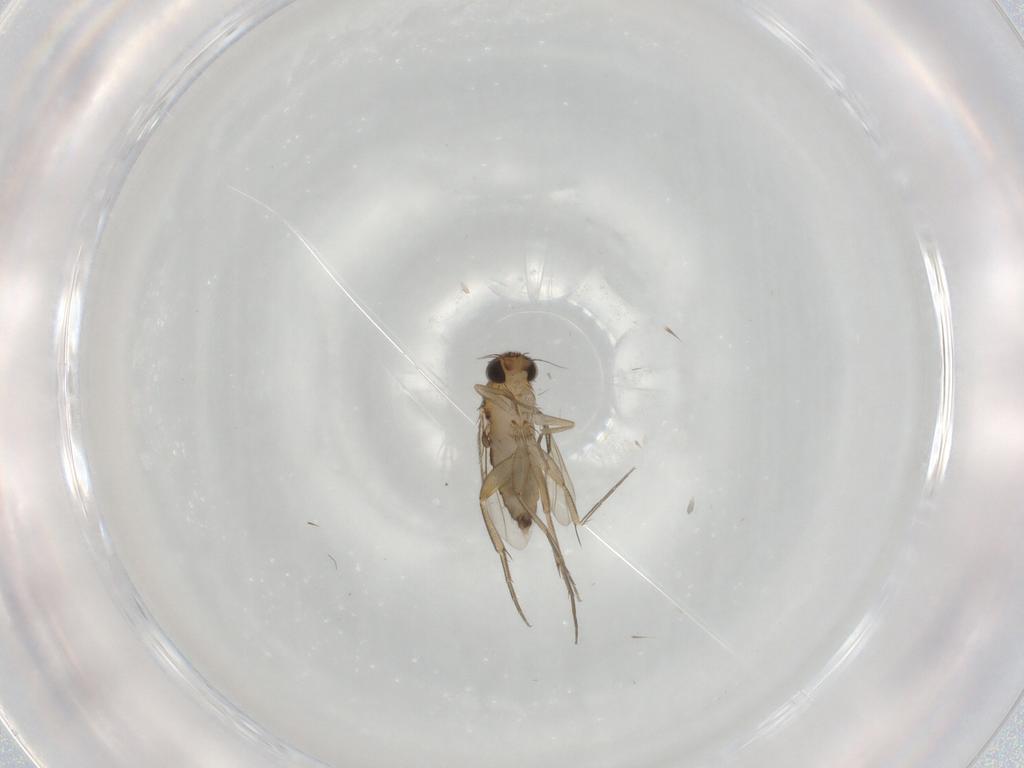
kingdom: Animalia
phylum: Arthropoda
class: Insecta
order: Diptera
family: Phoridae
